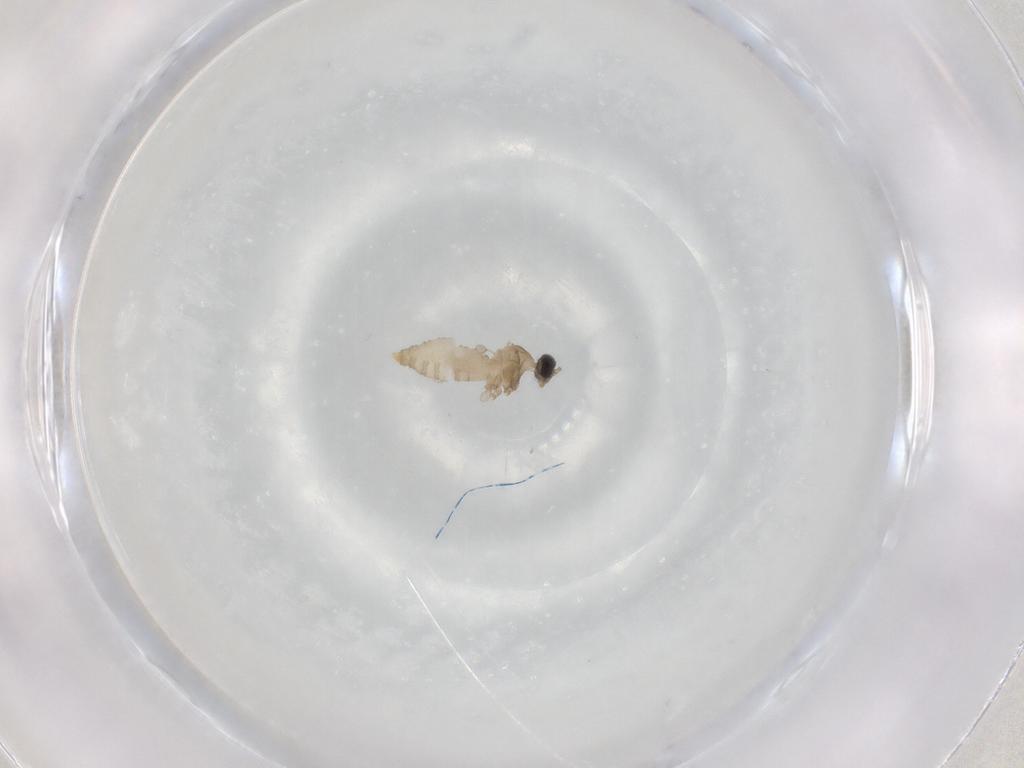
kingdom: Animalia
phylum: Arthropoda
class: Insecta
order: Diptera
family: Cecidomyiidae
